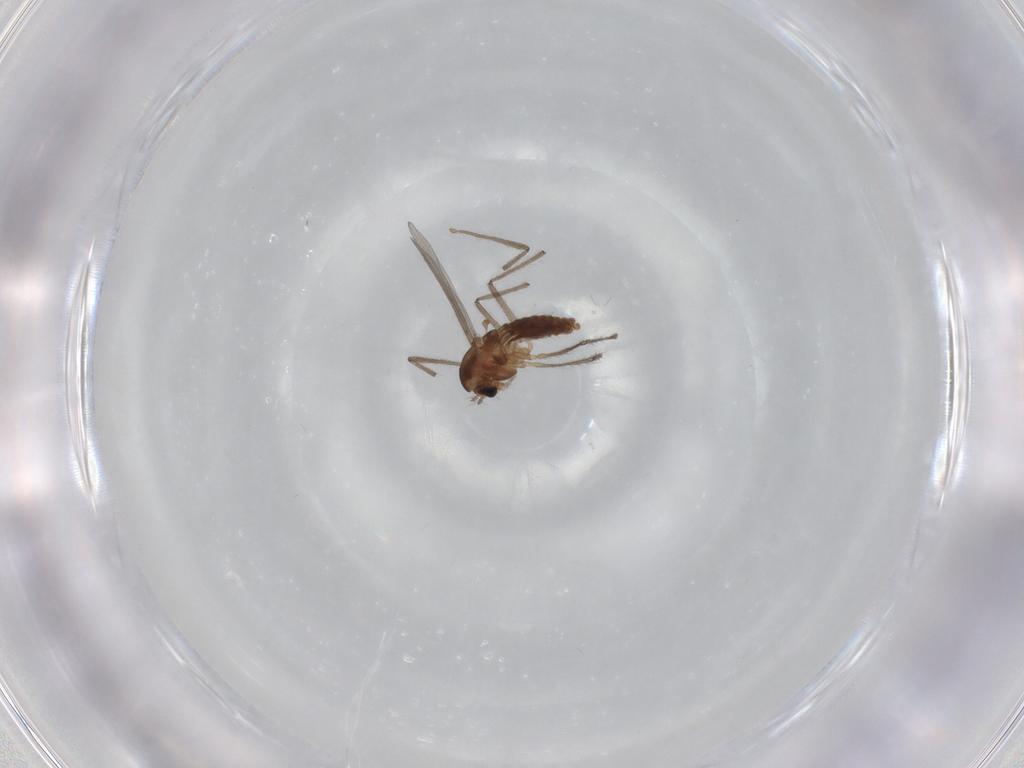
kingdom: Animalia
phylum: Arthropoda
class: Insecta
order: Diptera
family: Chironomidae
